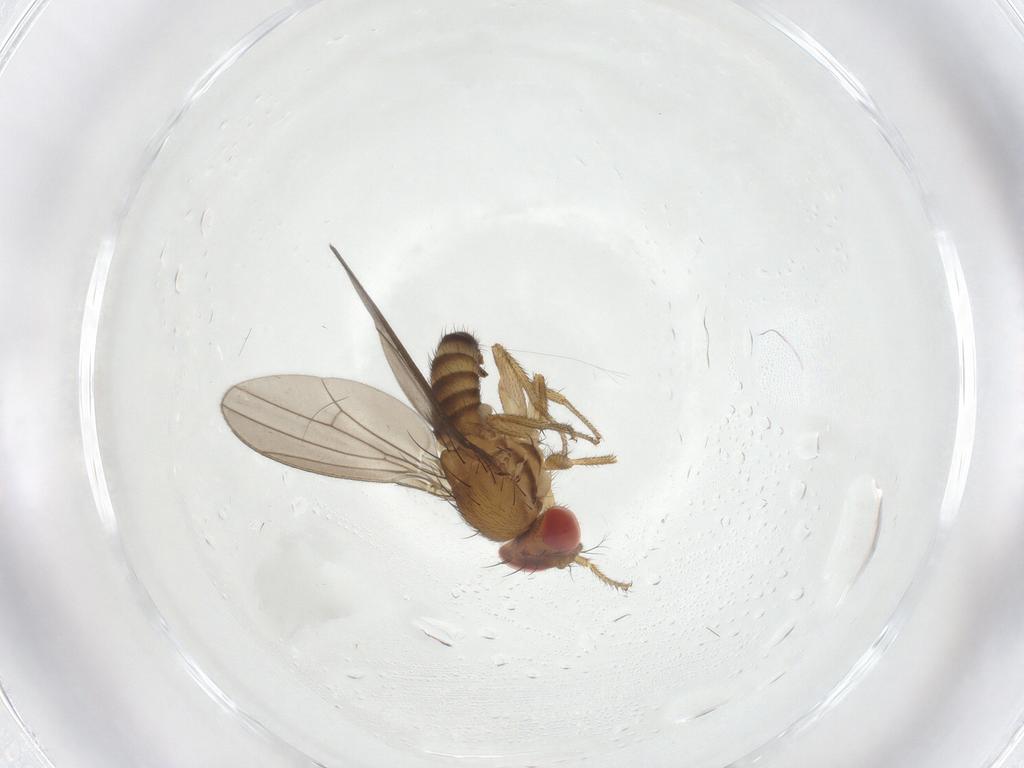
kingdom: Animalia
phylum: Arthropoda
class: Insecta
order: Diptera
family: Drosophilidae
